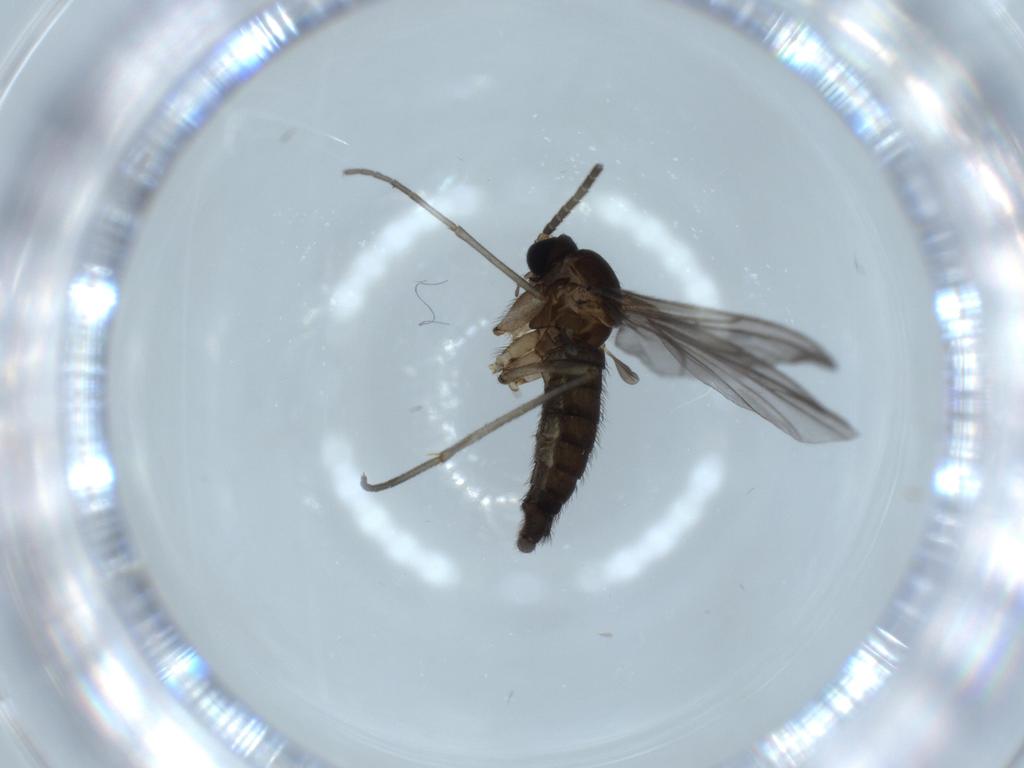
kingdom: Animalia
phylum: Arthropoda
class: Insecta
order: Diptera
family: Sciaridae
